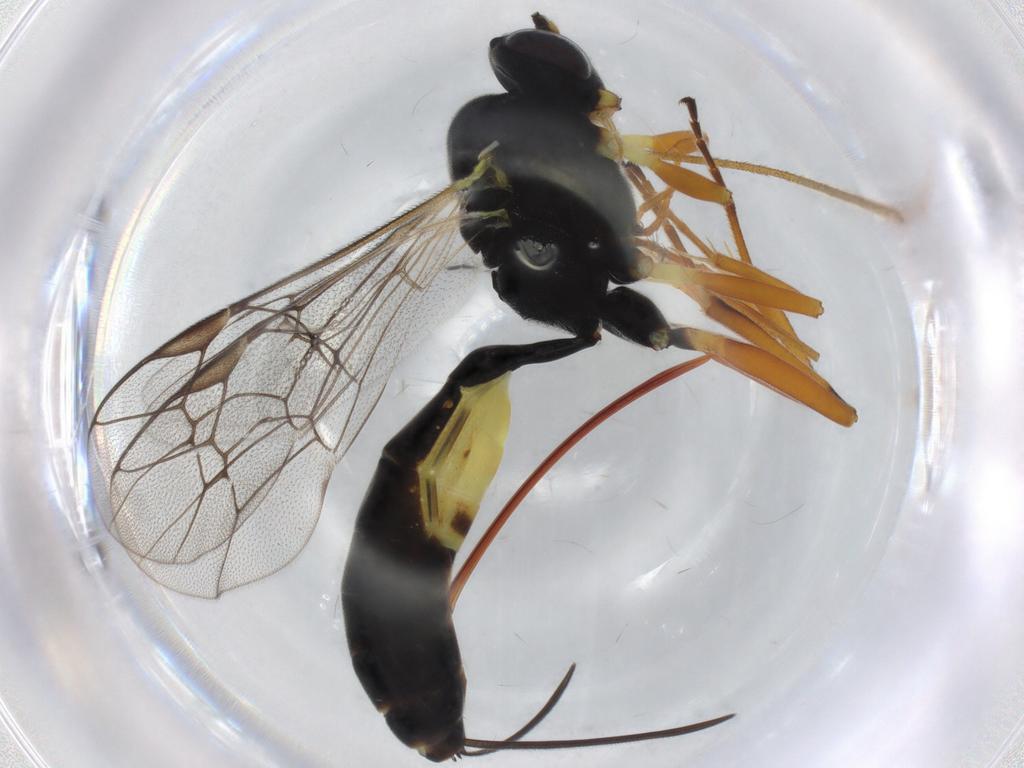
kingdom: Animalia
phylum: Arthropoda
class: Insecta
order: Hymenoptera
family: Ichneumonidae
